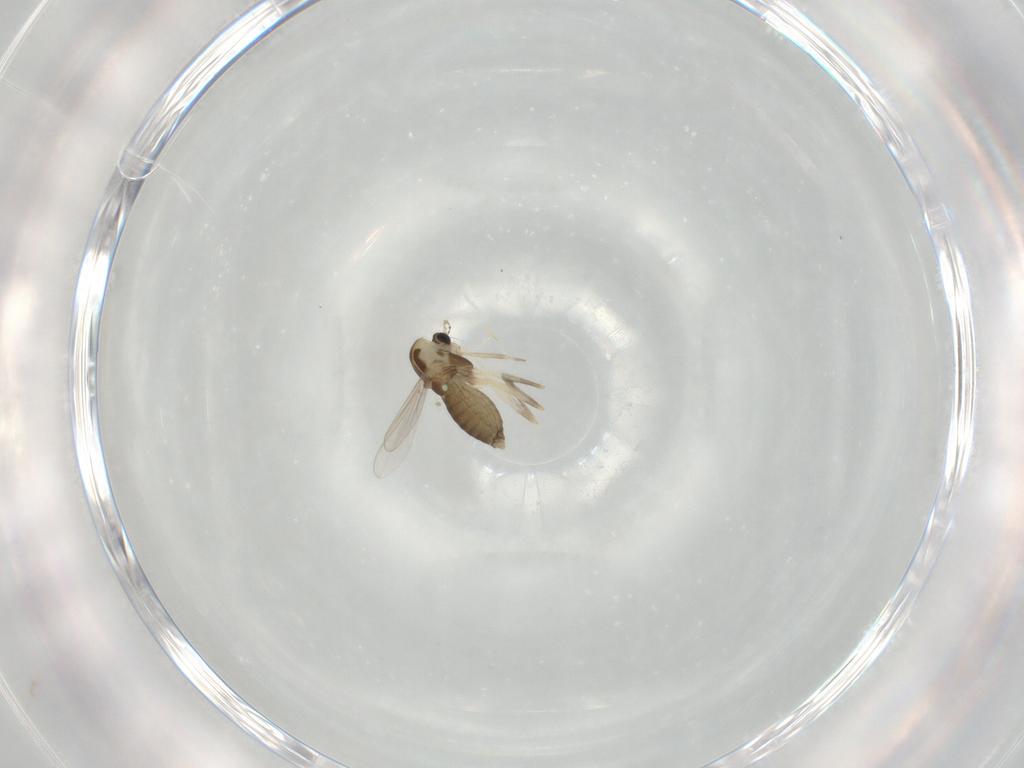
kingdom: Animalia
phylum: Arthropoda
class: Insecta
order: Diptera
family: Chironomidae
